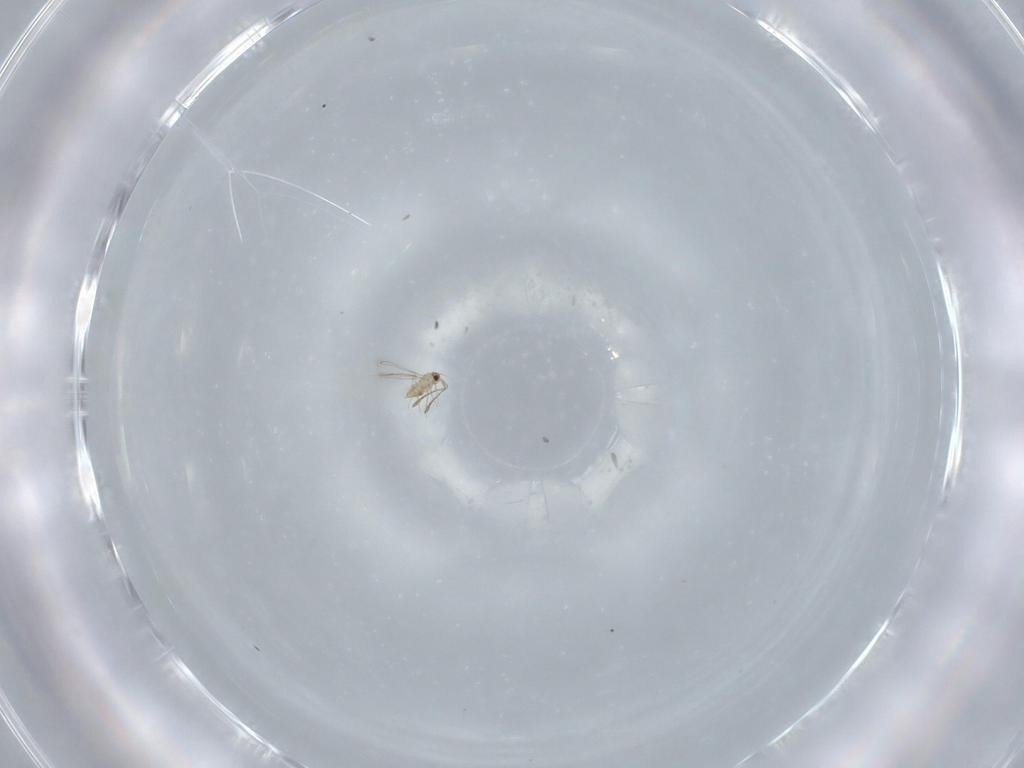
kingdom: Animalia
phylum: Arthropoda
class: Insecta
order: Hymenoptera
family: Mymaridae
